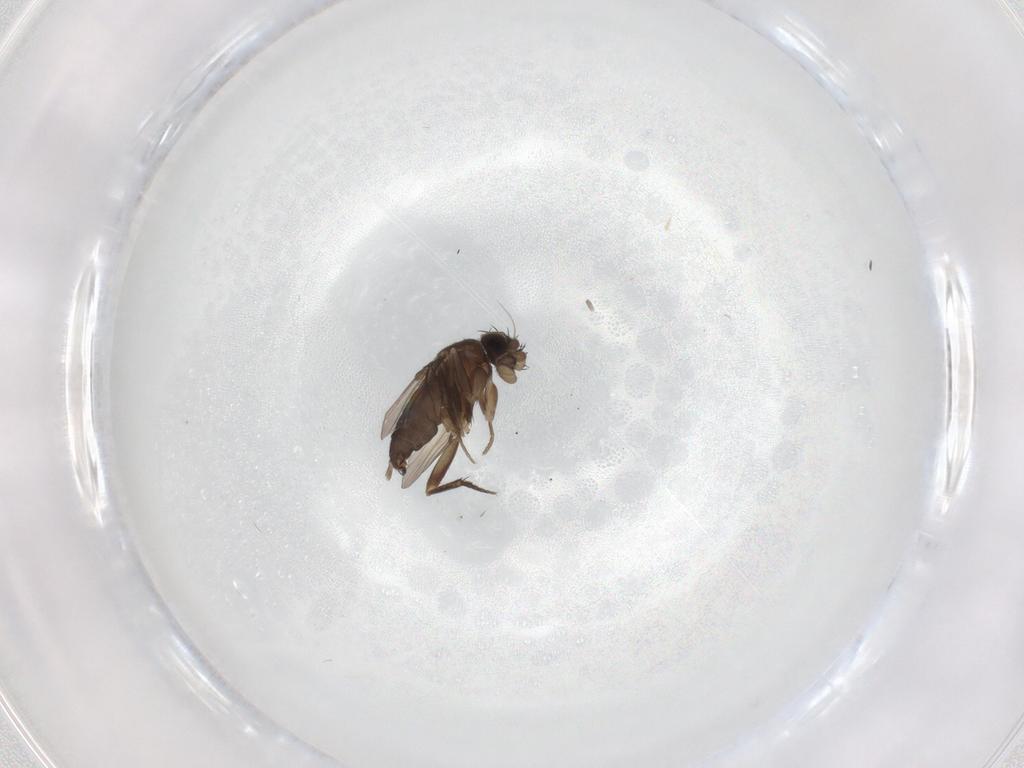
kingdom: Animalia
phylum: Arthropoda
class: Insecta
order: Diptera
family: Phoridae
